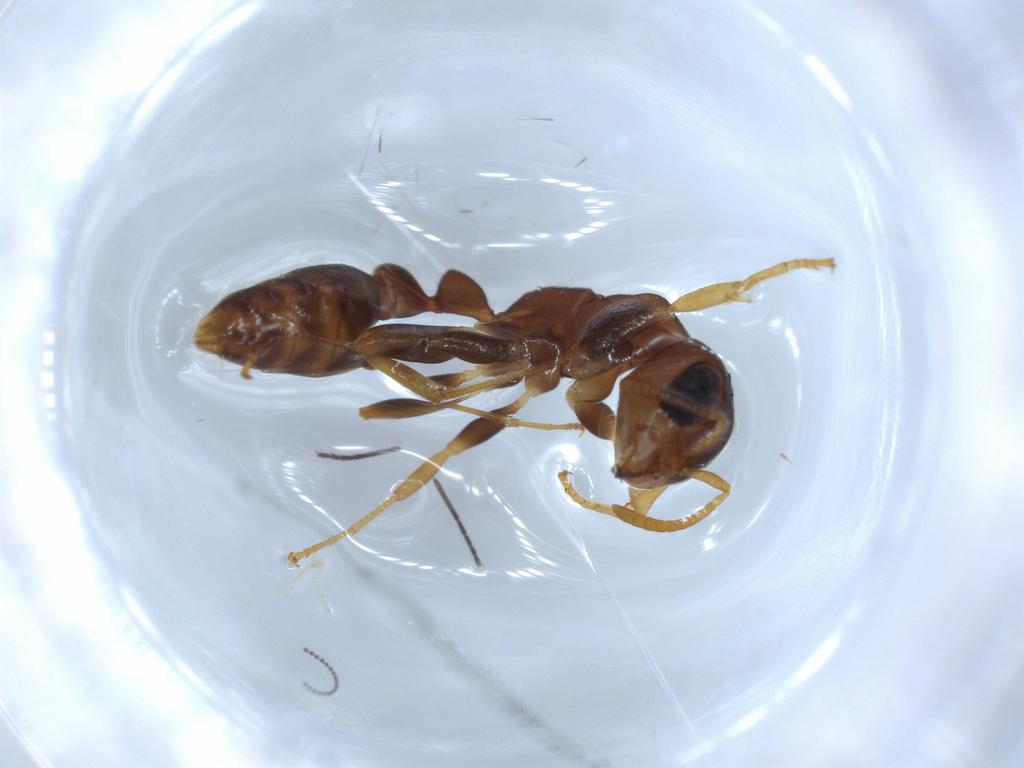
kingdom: Animalia
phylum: Arthropoda
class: Insecta
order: Hymenoptera
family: Formicidae
